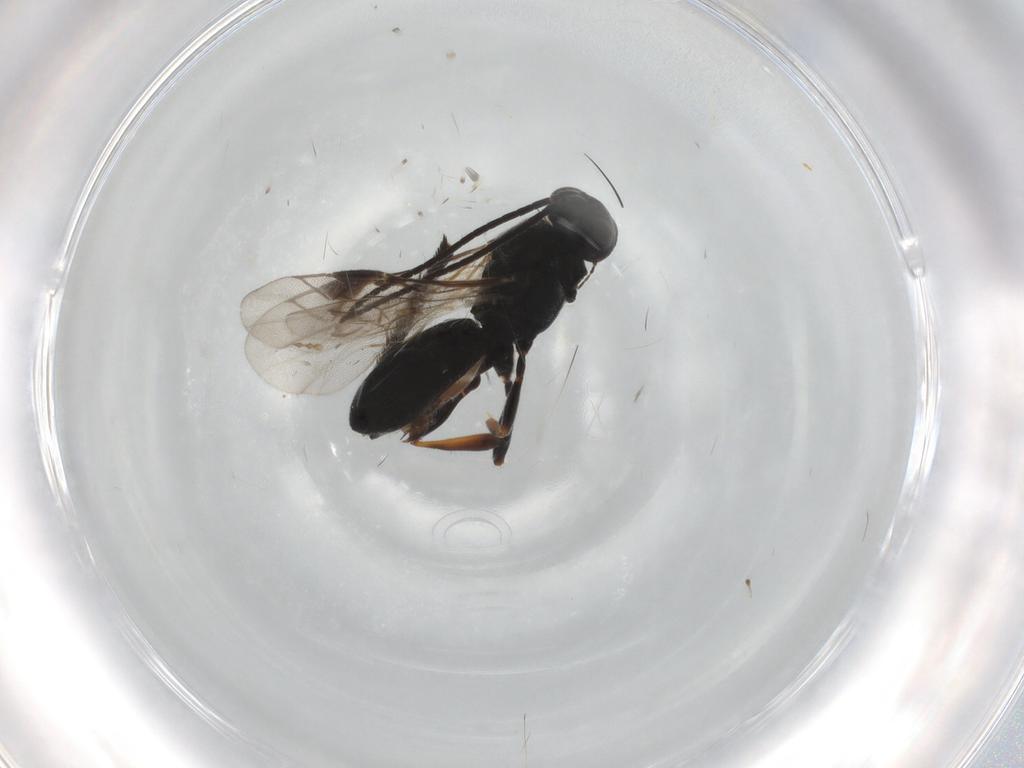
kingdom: Animalia
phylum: Arthropoda
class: Insecta
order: Hymenoptera
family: Braconidae
